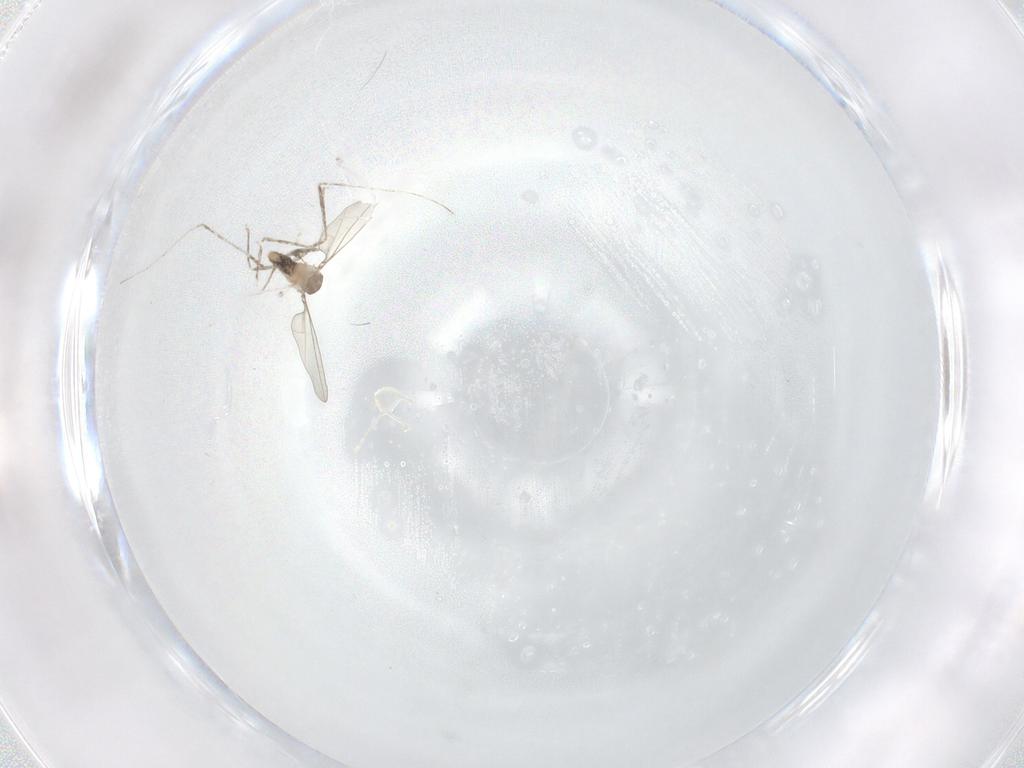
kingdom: Animalia
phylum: Arthropoda
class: Insecta
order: Diptera
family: Cecidomyiidae
